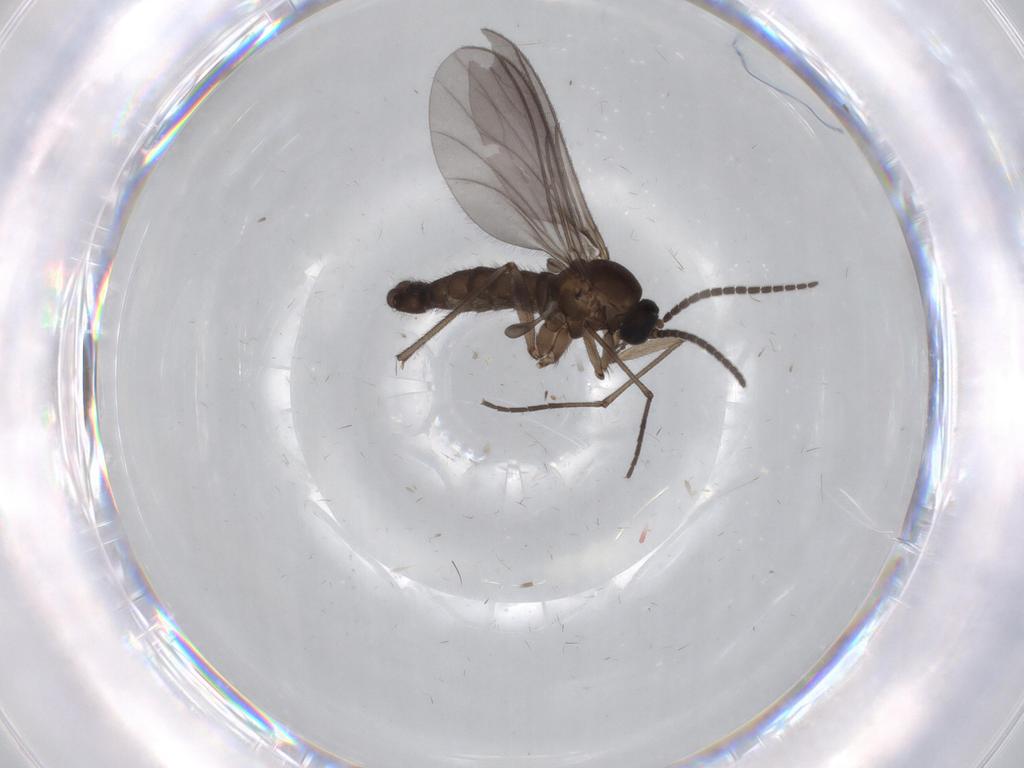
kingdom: Animalia
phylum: Arthropoda
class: Insecta
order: Diptera
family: Sciaridae
